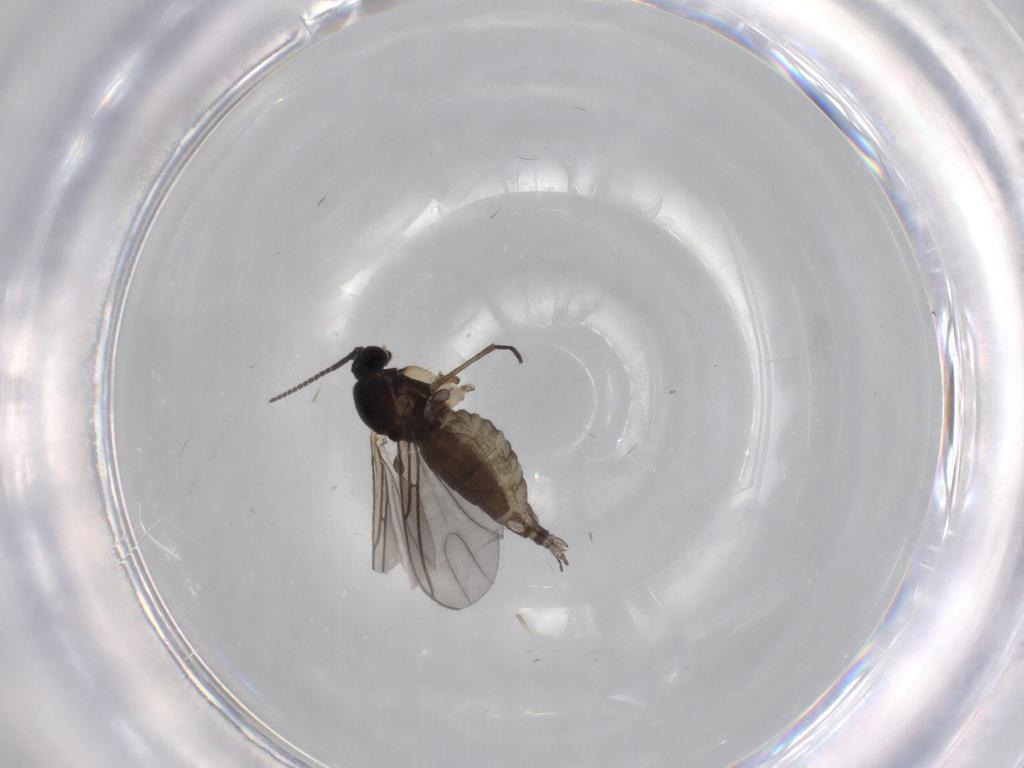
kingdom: Animalia
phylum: Arthropoda
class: Insecta
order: Diptera
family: Sciaridae
